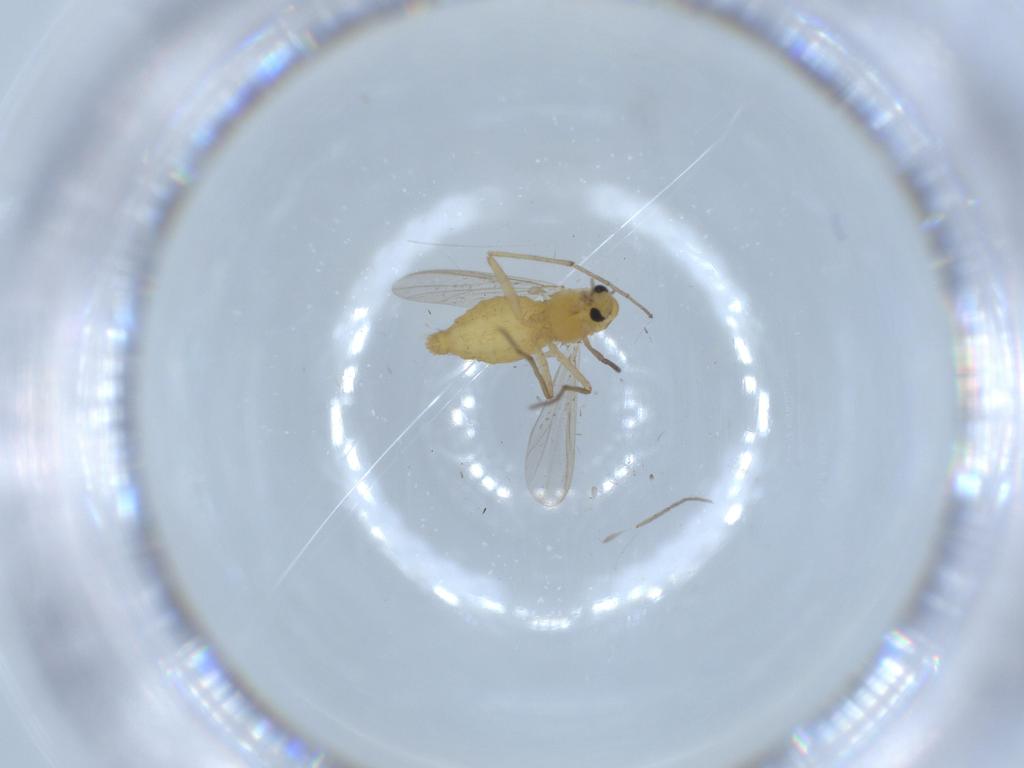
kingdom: Animalia
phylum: Arthropoda
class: Insecta
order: Diptera
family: Chironomidae
